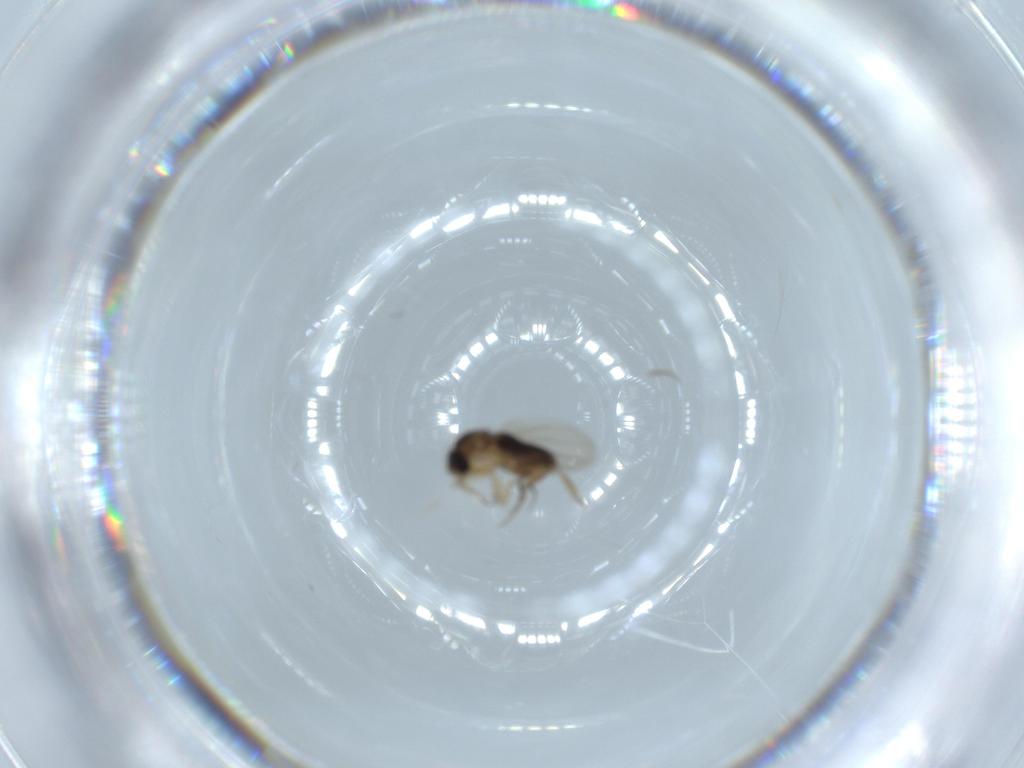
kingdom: Animalia
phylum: Arthropoda
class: Insecta
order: Diptera
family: Phoridae
